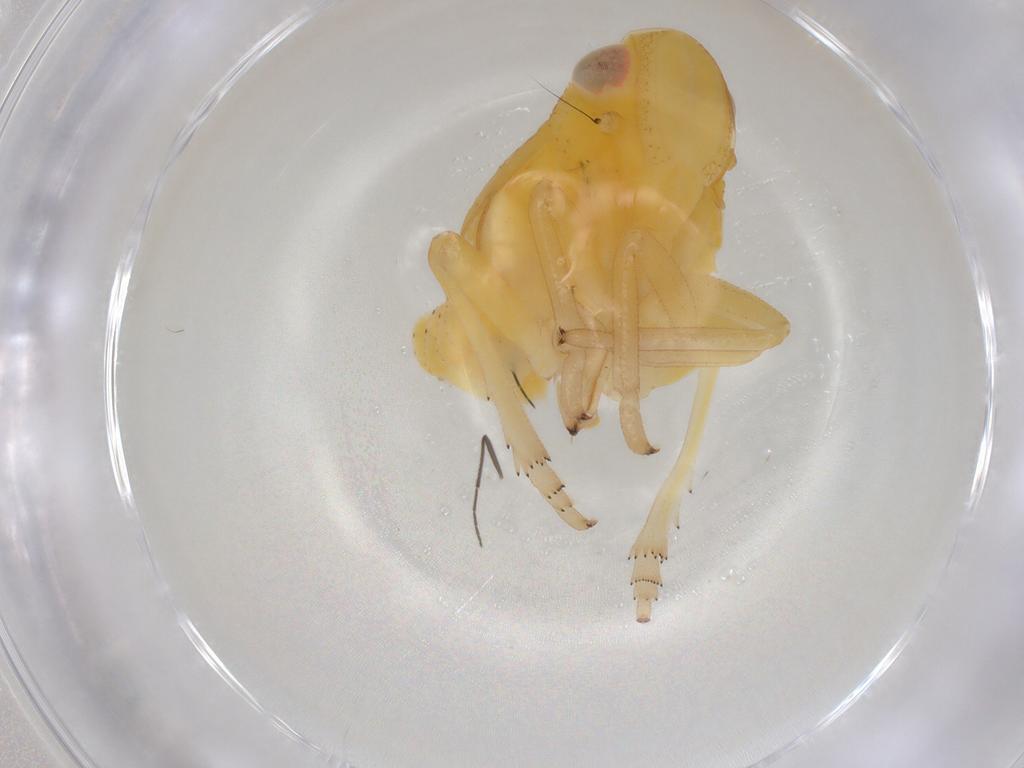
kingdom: Animalia
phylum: Arthropoda
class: Insecta
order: Hemiptera
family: Fulgoroidea_incertae_sedis
